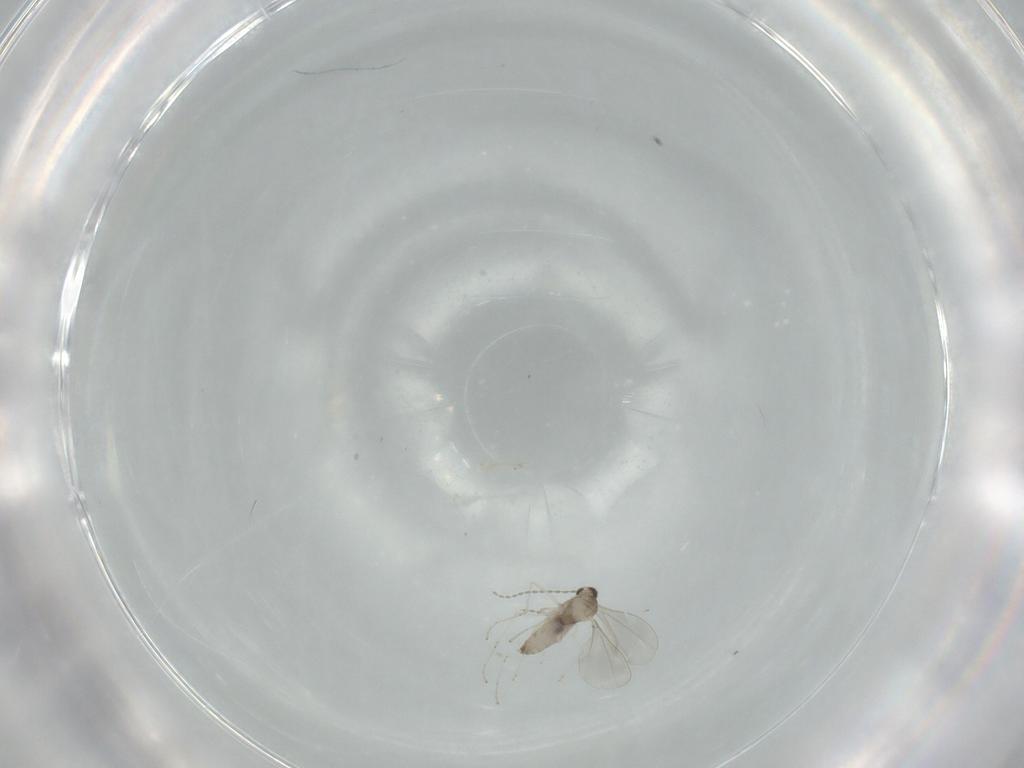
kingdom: Animalia
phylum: Arthropoda
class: Insecta
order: Diptera
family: Cecidomyiidae
